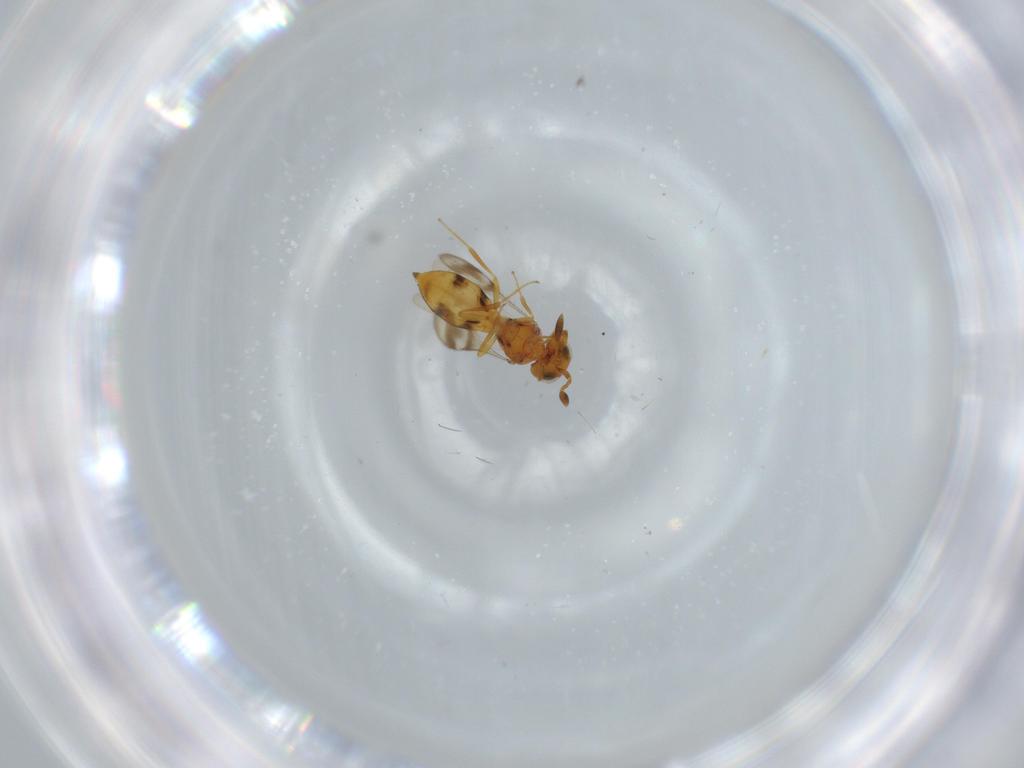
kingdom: Animalia
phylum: Arthropoda
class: Insecta
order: Hymenoptera
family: Scelionidae
